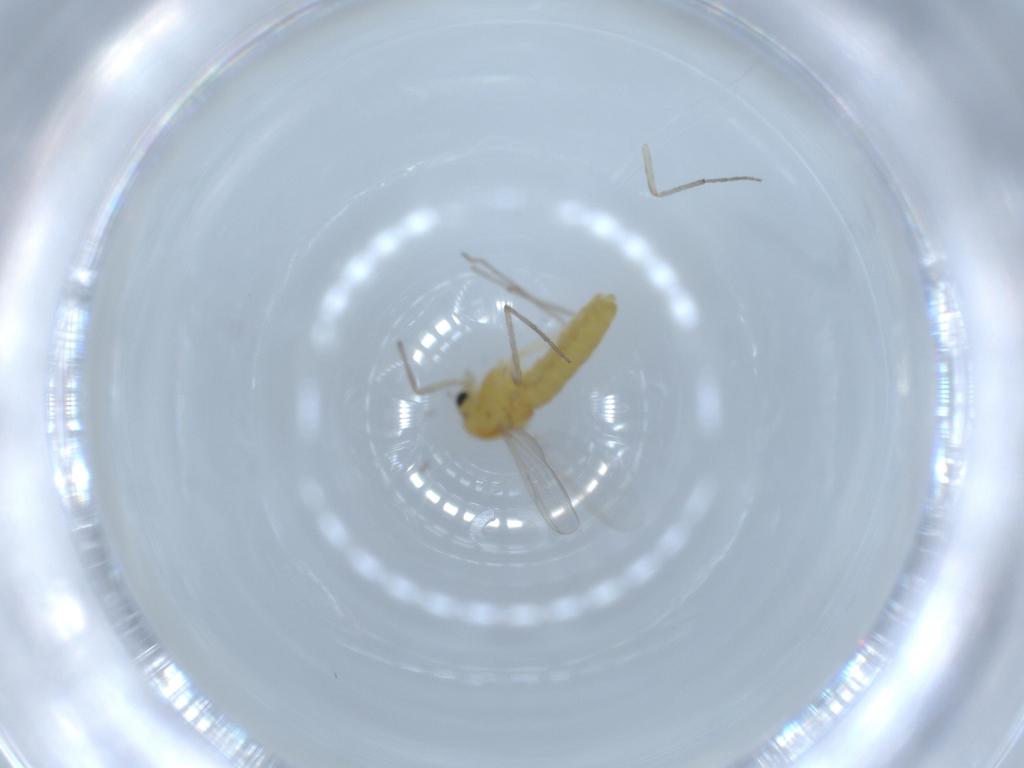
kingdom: Animalia
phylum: Arthropoda
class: Insecta
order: Diptera
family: Chironomidae
